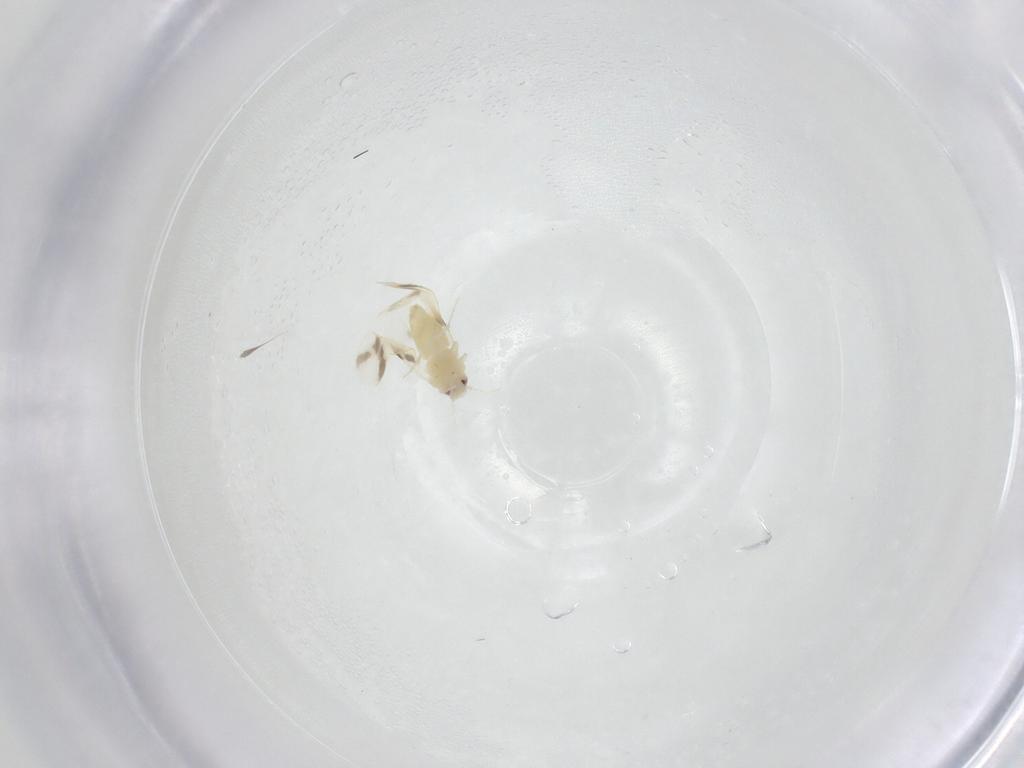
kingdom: Animalia
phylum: Arthropoda
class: Insecta
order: Hemiptera
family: Aleyrodidae
